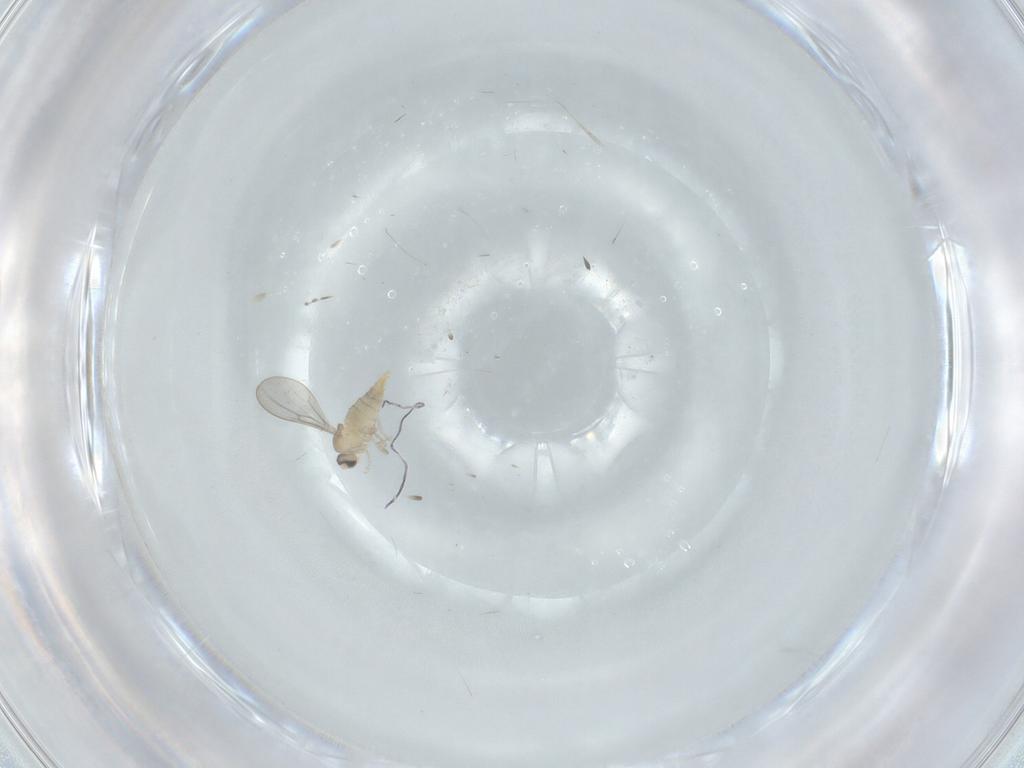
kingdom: Animalia
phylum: Arthropoda
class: Insecta
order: Diptera
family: Cecidomyiidae
